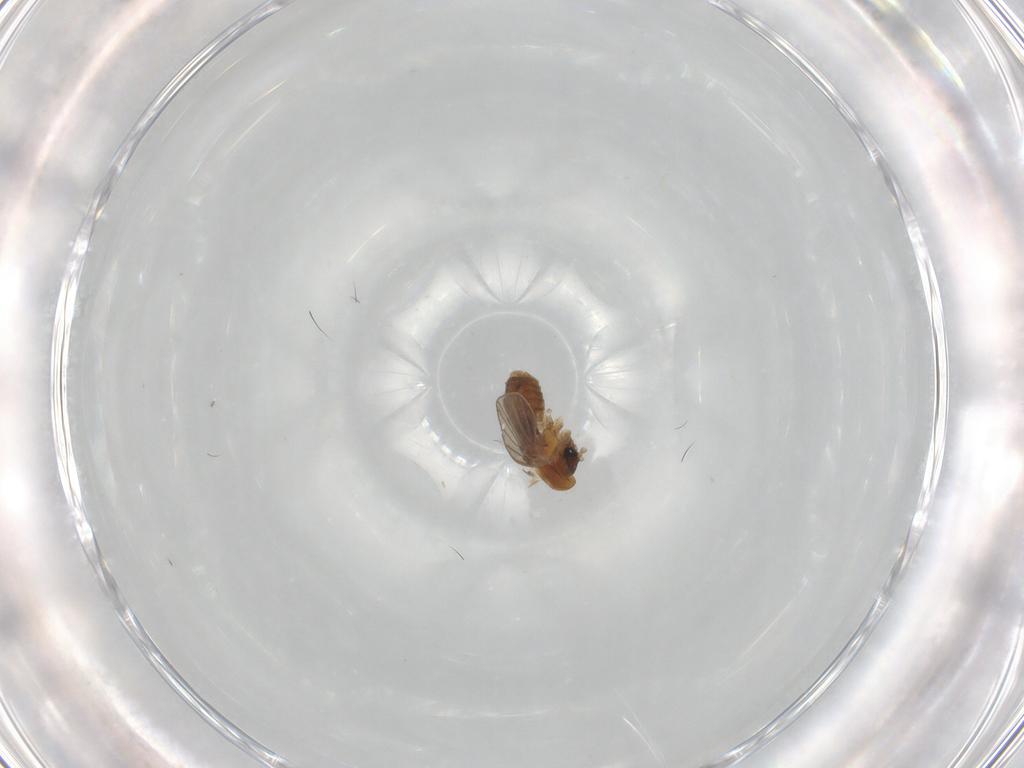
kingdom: Animalia
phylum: Arthropoda
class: Insecta
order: Diptera
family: Psychodidae
